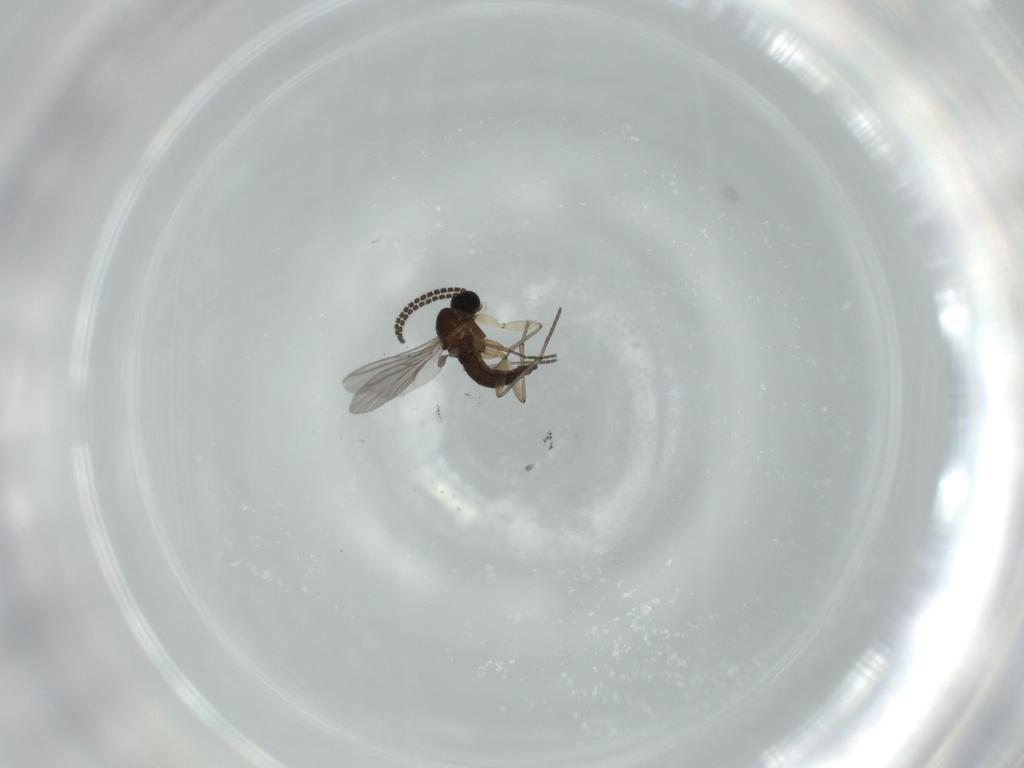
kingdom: Animalia
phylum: Arthropoda
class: Insecta
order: Diptera
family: Sciaridae
